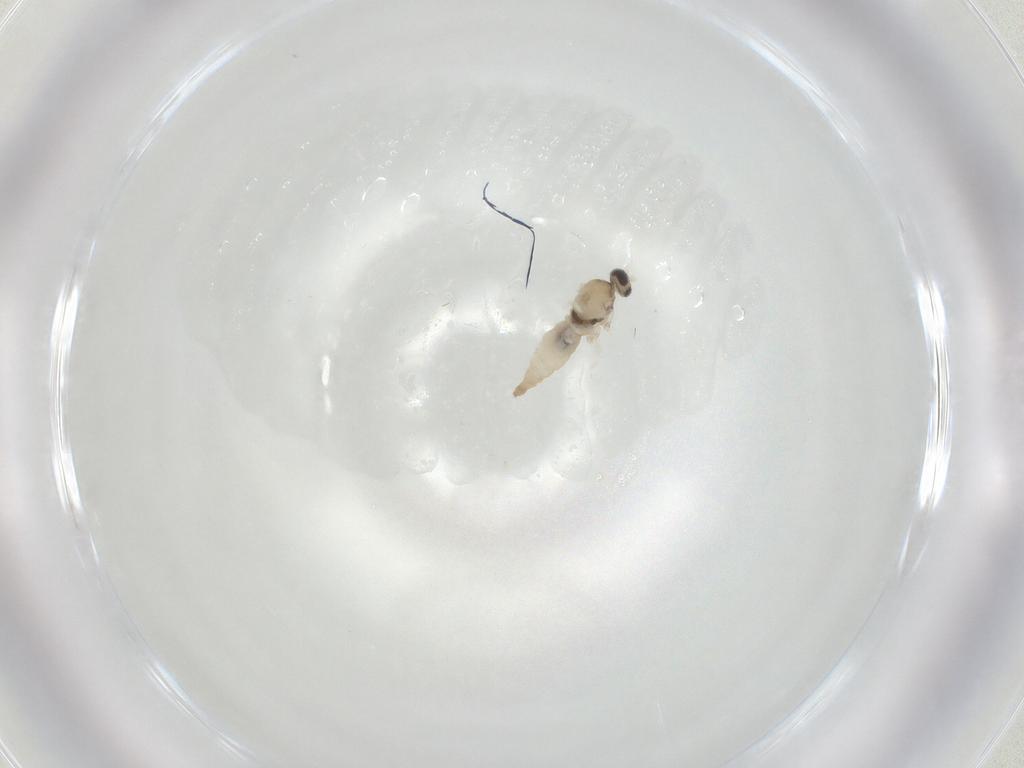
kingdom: Animalia
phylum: Arthropoda
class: Insecta
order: Diptera
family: Cecidomyiidae
